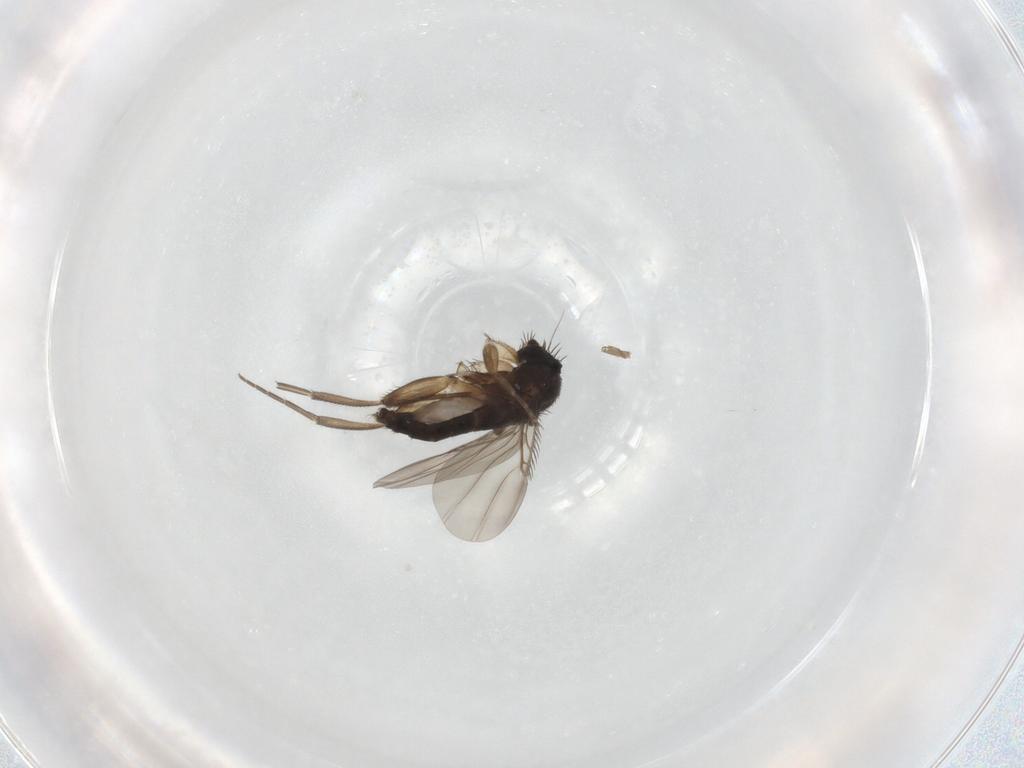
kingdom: Animalia
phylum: Arthropoda
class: Insecta
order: Diptera
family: Phoridae
